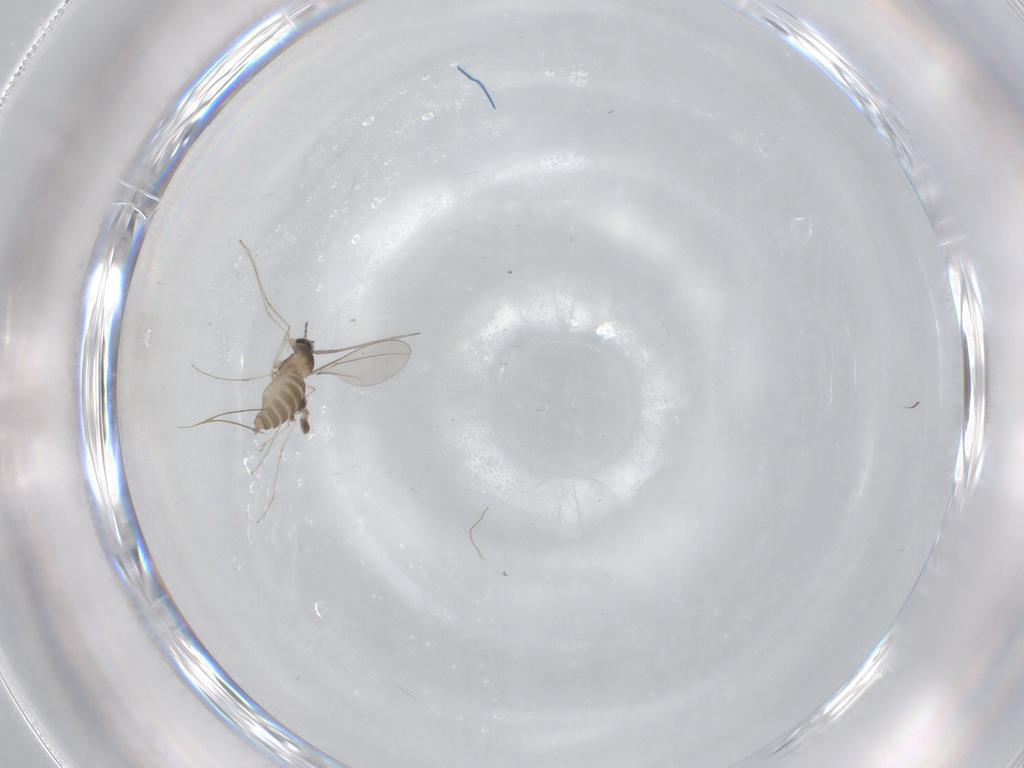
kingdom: Animalia
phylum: Arthropoda
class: Insecta
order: Diptera
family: Cecidomyiidae
